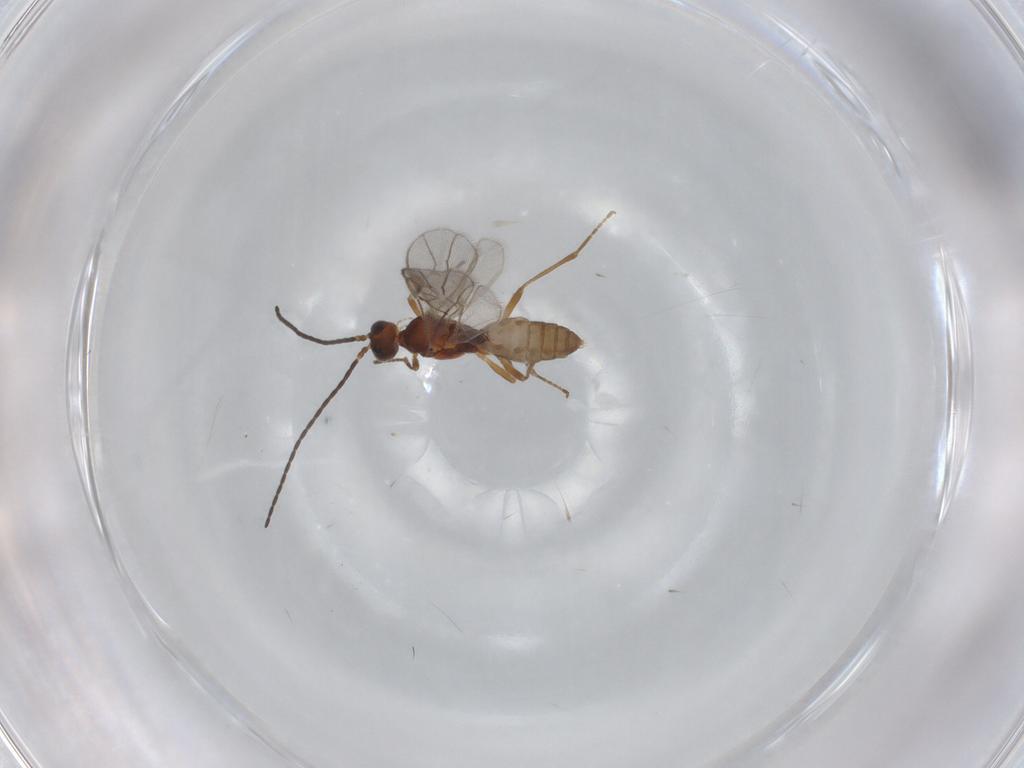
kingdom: Animalia
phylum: Arthropoda
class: Insecta
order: Hymenoptera
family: Braconidae
